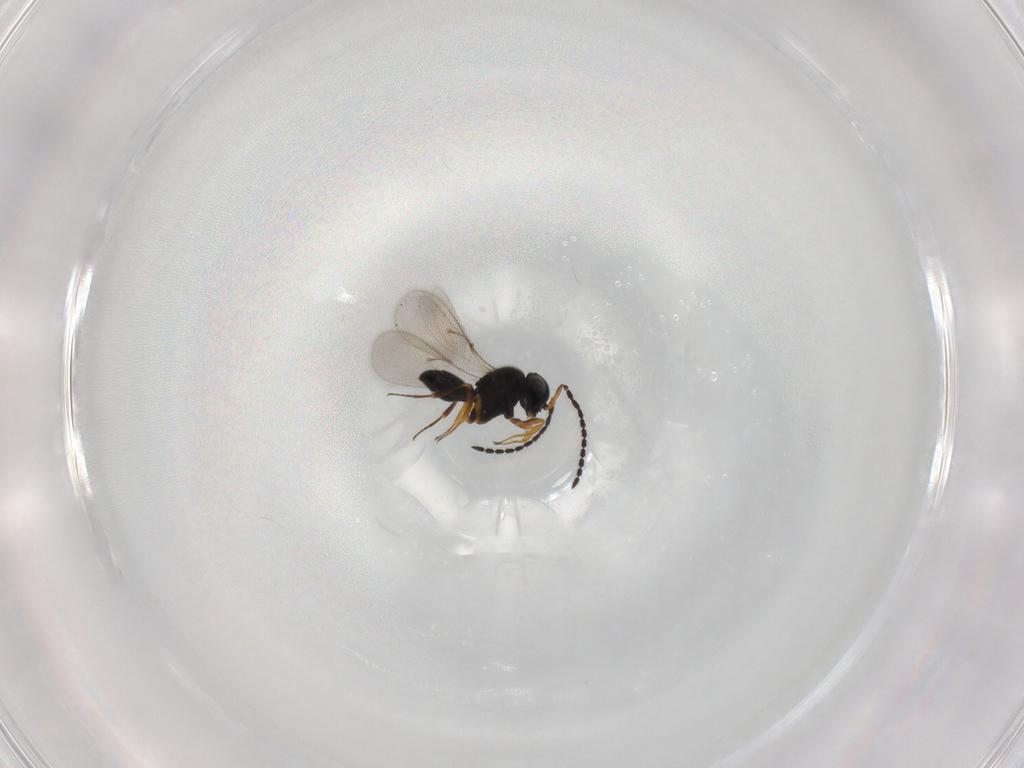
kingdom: Animalia
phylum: Arthropoda
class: Insecta
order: Hymenoptera
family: Scelionidae
